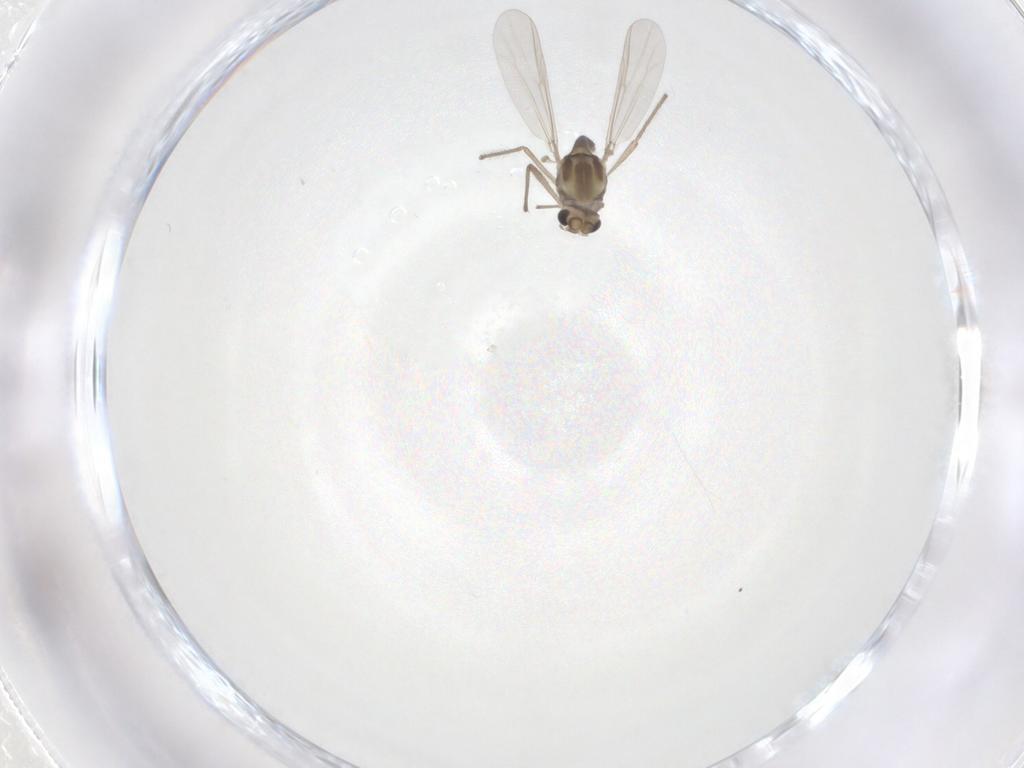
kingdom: Animalia
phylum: Arthropoda
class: Insecta
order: Diptera
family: Chironomidae
